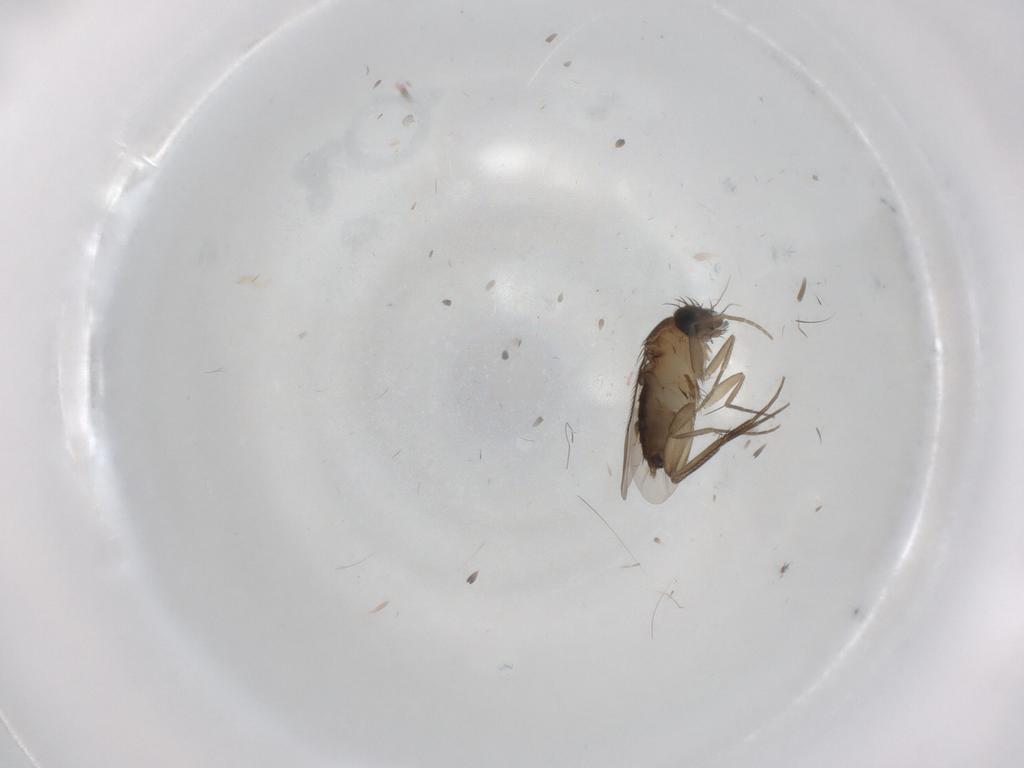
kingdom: Animalia
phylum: Arthropoda
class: Insecta
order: Diptera
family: Phoridae
